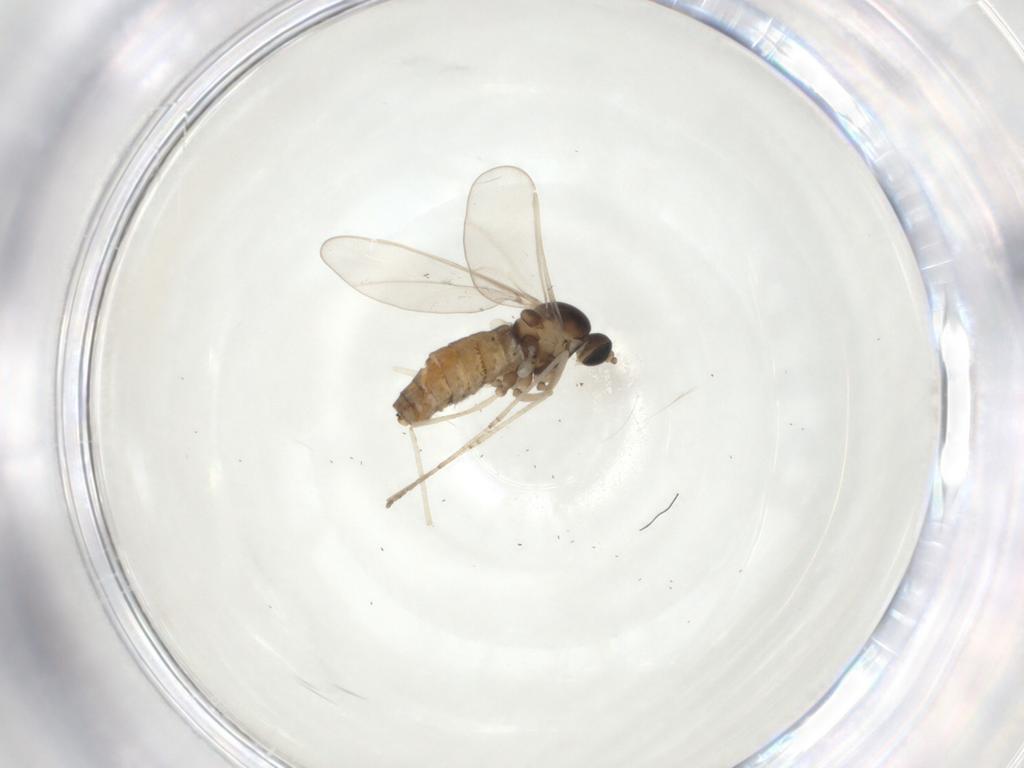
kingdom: Animalia
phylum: Arthropoda
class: Insecta
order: Diptera
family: Cecidomyiidae
